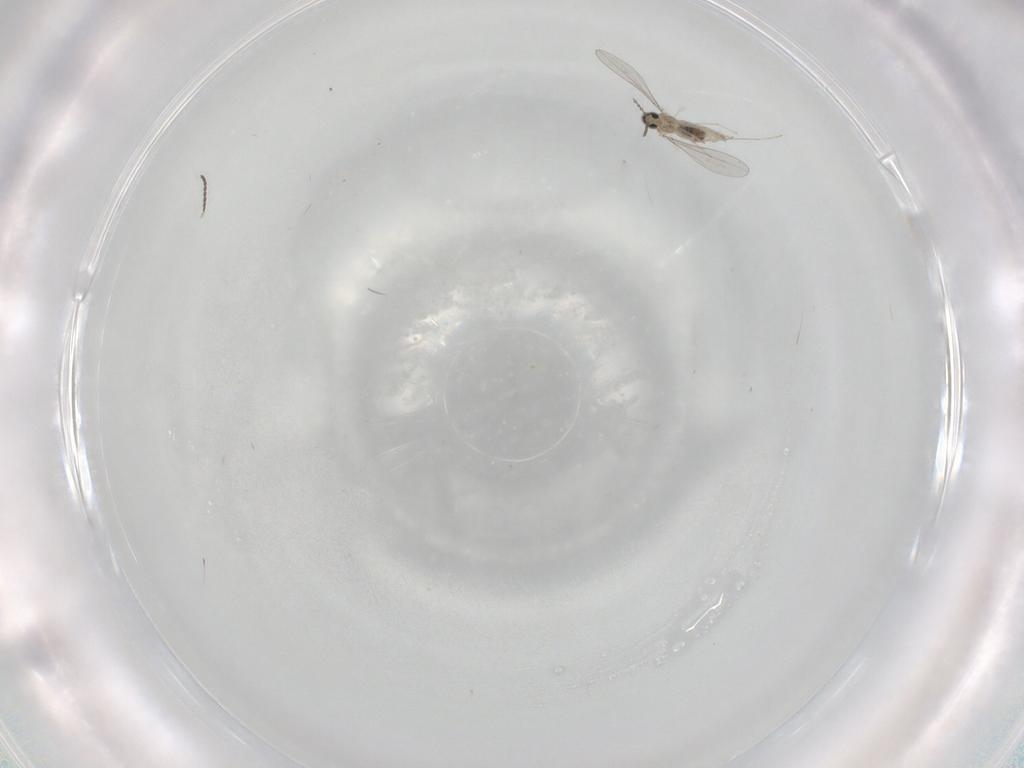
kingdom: Animalia
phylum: Arthropoda
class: Insecta
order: Diptera
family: Cecidomyiidae
